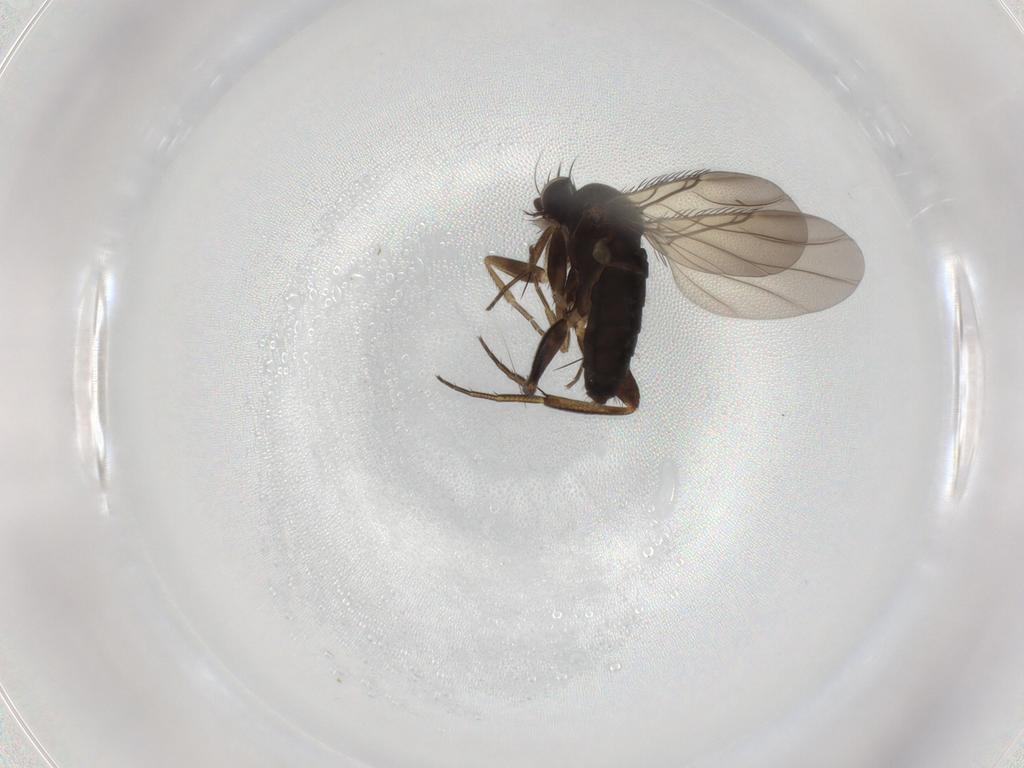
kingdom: Animalia
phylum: Arthropoda
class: Insecta
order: Diptera
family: Phoridae
